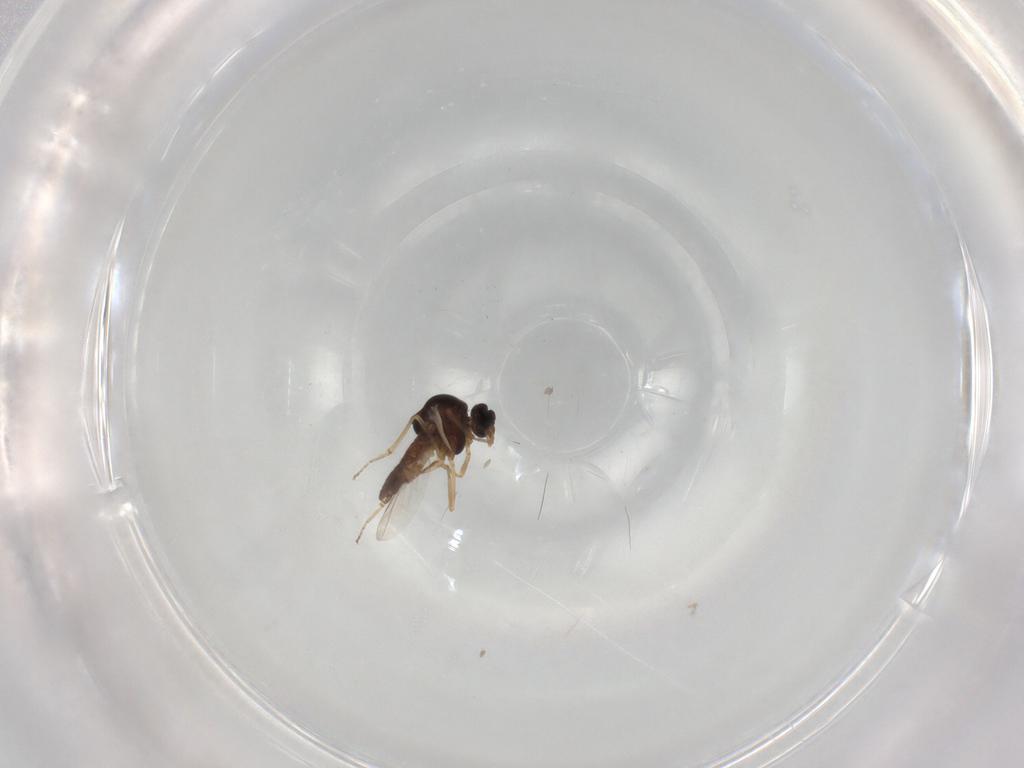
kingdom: Animalia
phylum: Arthropoda
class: Insecta
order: Diptera
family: Ceratopogonidae
